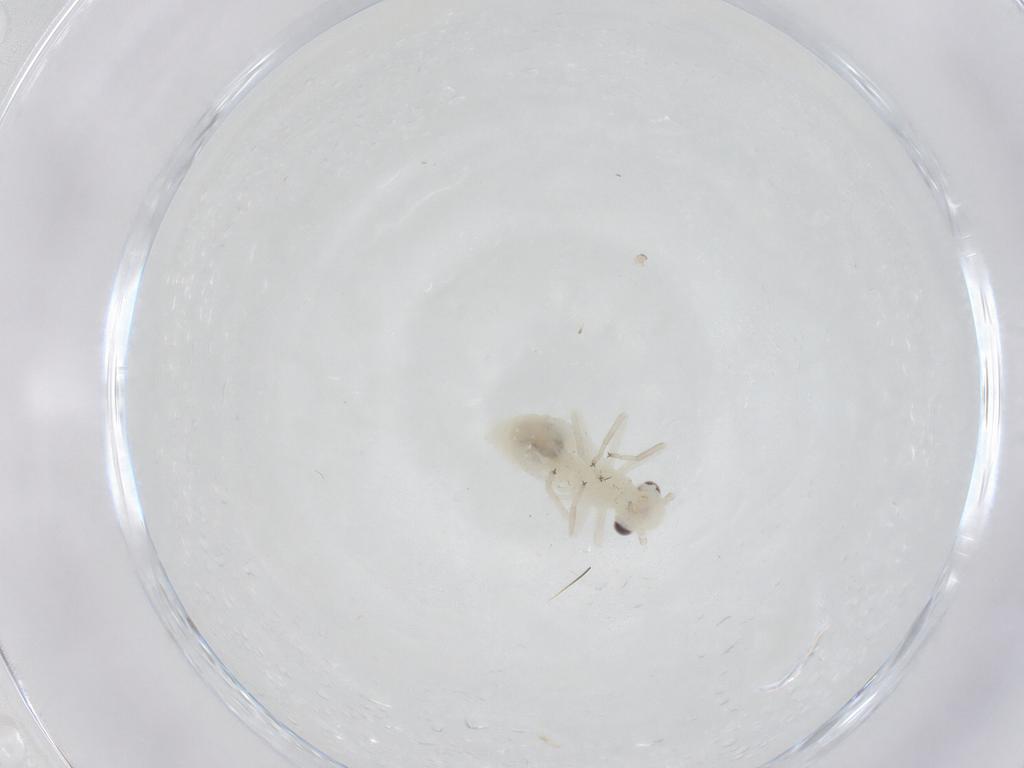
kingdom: Animalia
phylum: Arthropoda
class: Insecta
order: Psocodea
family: Caeciliusidae
